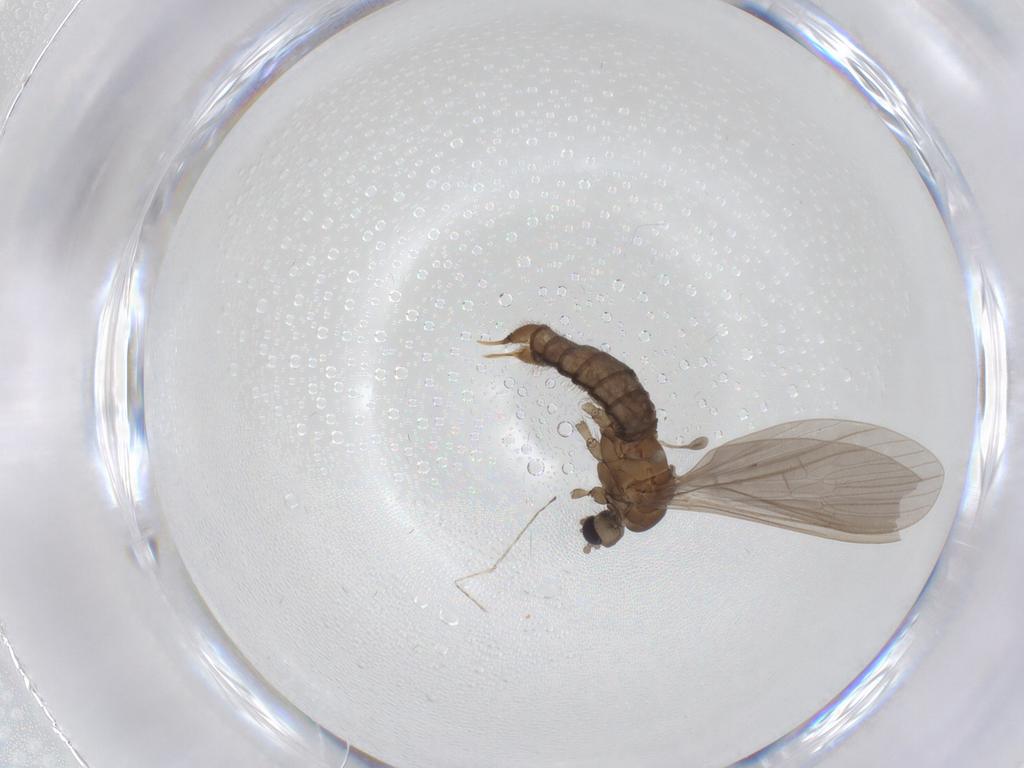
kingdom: Animalia
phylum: Arthropoda
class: Insecta
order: Diptera
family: Limoniidae
